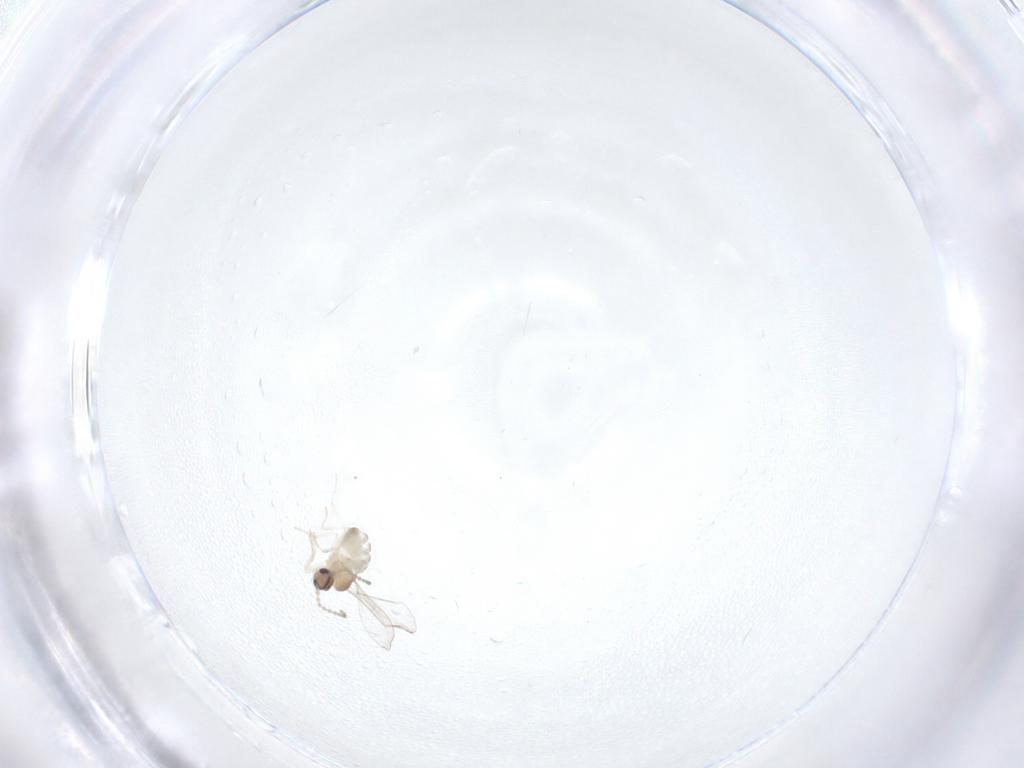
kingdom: Animalia
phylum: Arthropoda
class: Insecta
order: Diptera
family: Cecidomyiidae
